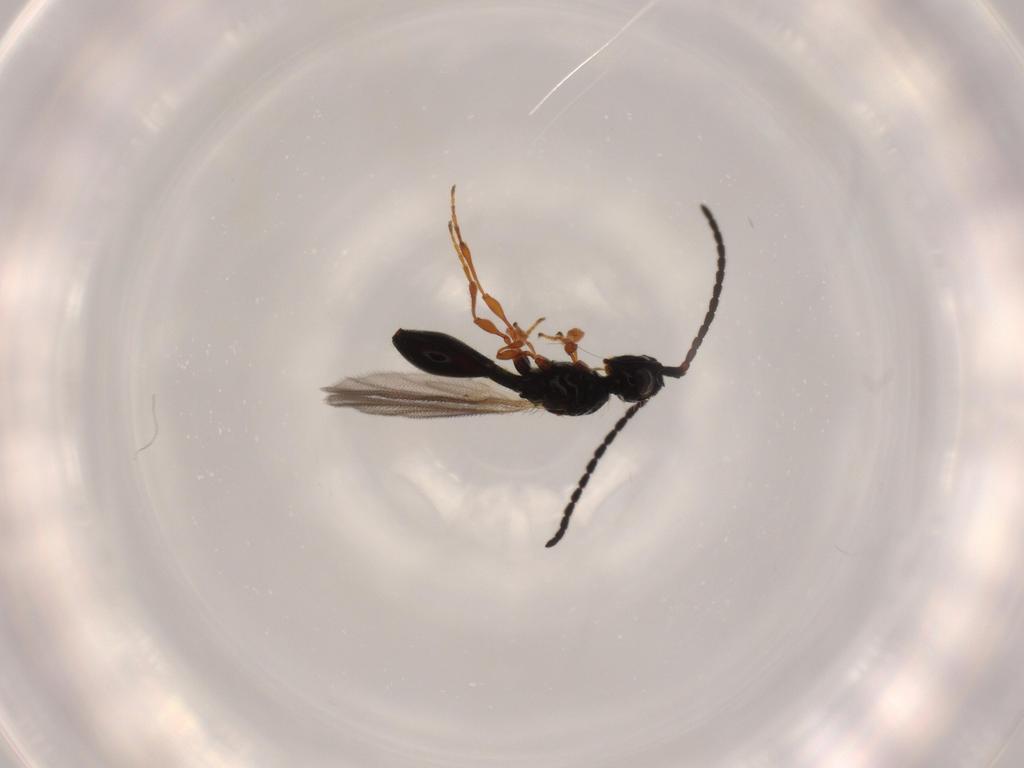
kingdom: Animalia
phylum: Arthropoda
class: Insecta
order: Hymenoptera
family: Diapriidae
